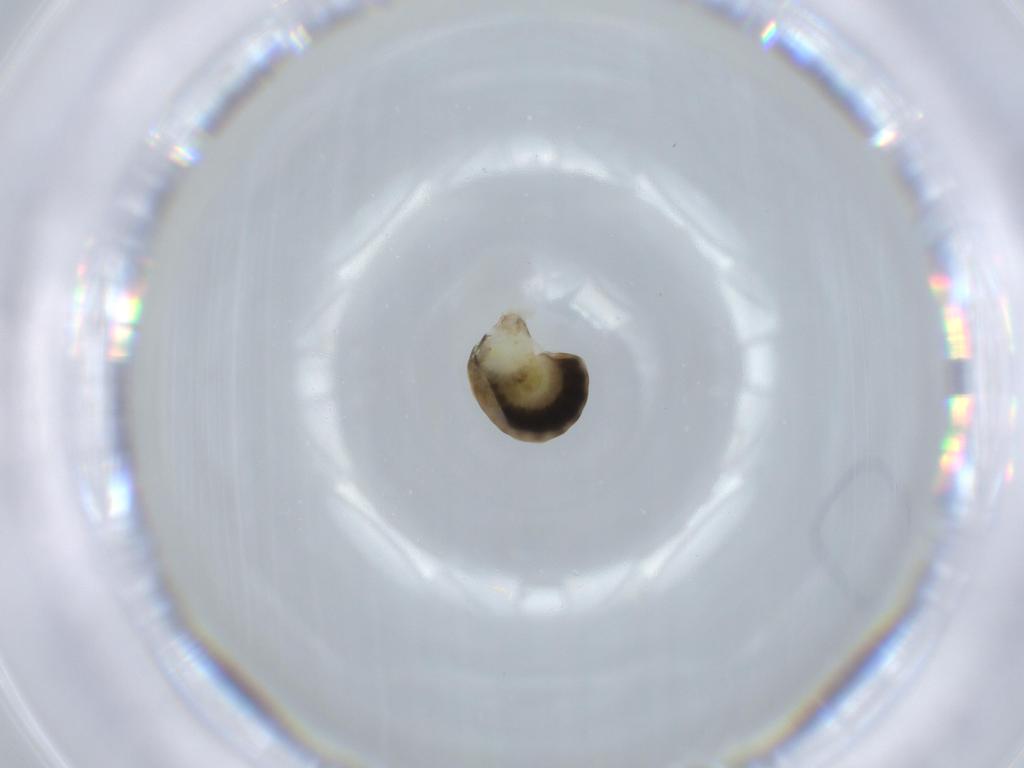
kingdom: Animalia
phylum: Arthropoda
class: Insecta
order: Hymenoptera
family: Dryinidae
